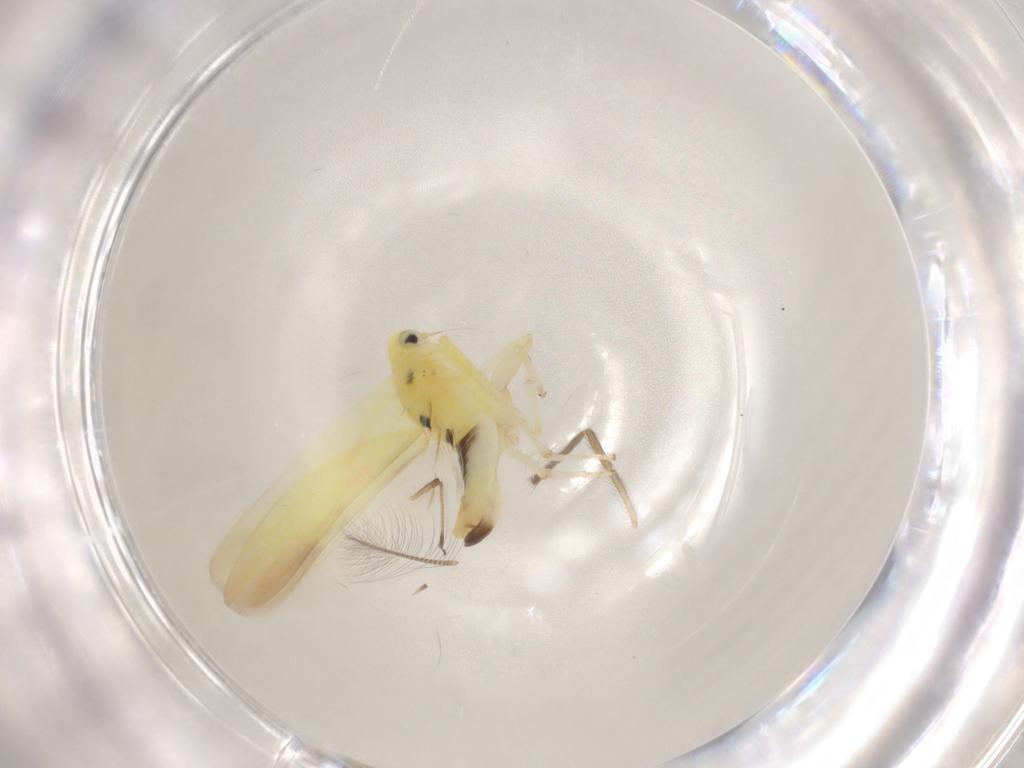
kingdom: Animalia
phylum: Arthropoda
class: Insecta
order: Hemiptera
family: Cicadellidae
